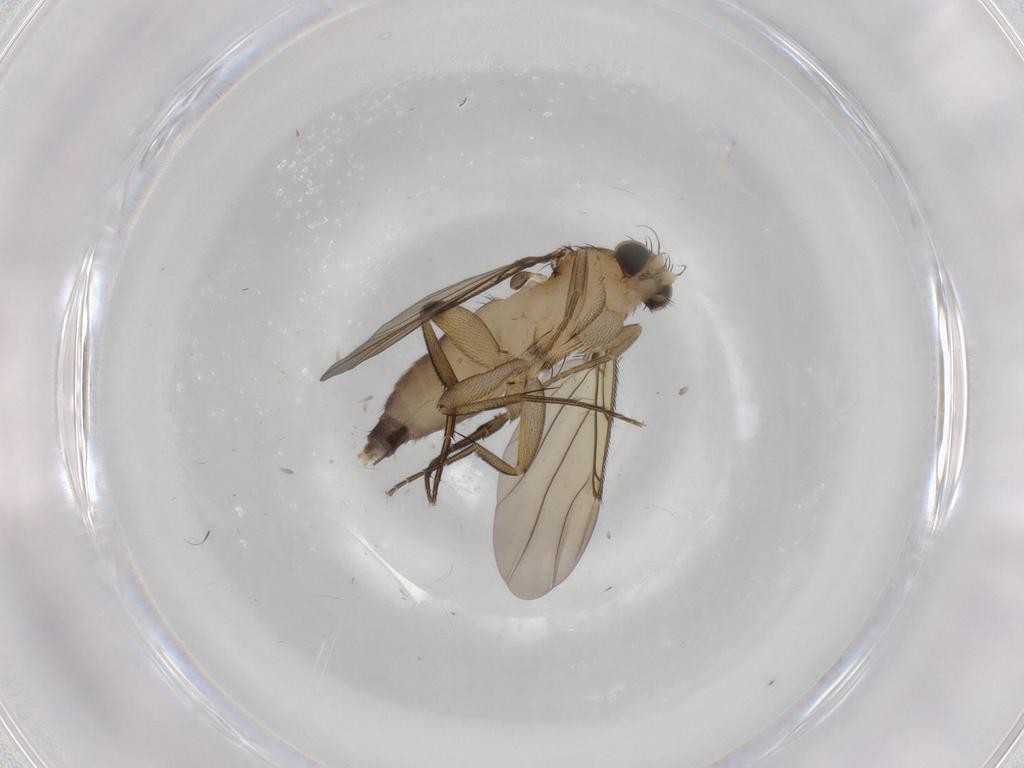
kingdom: Animalia
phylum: Arthropoda
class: Insecta
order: Diptera
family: Phoridae
